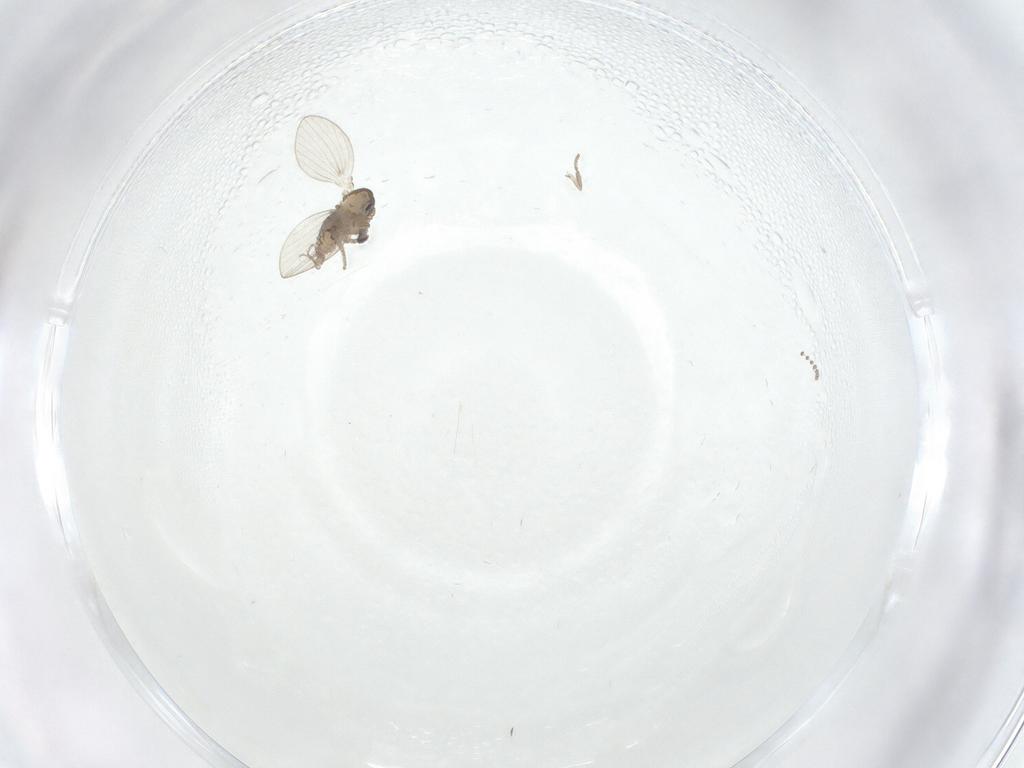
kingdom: Animalia
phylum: Arthropoda
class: Insecta
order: Diptera
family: Psychodidae
